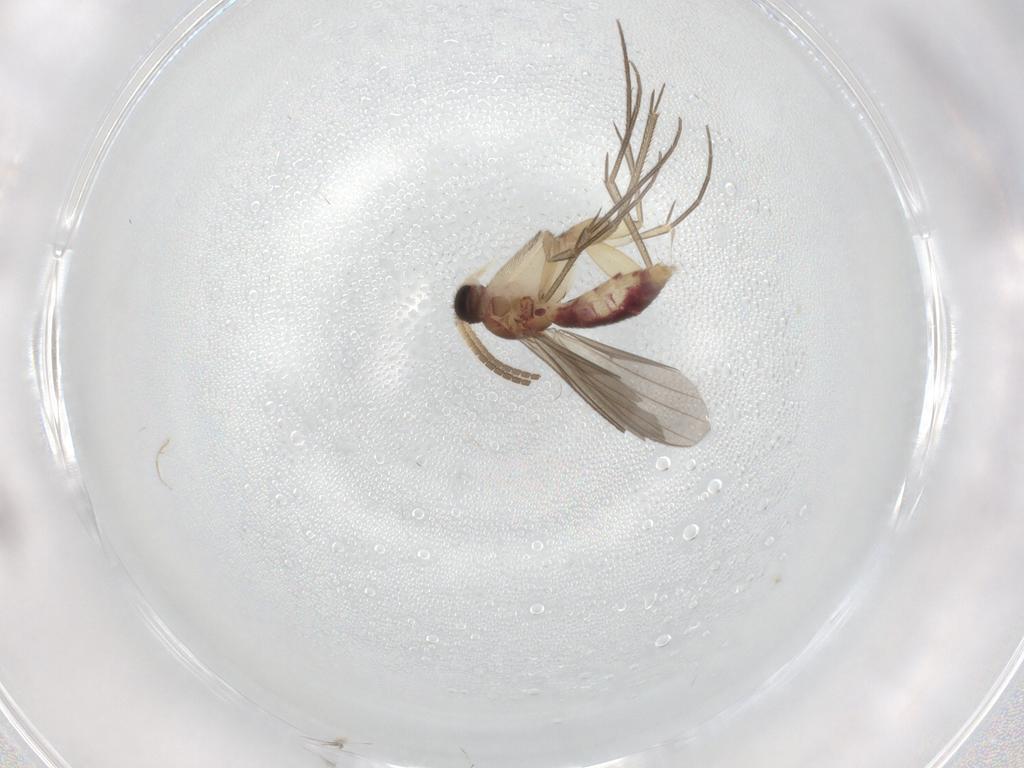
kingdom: Animalia
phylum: Arthropoda
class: Insecta
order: Diptera
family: Mycetophilidae
